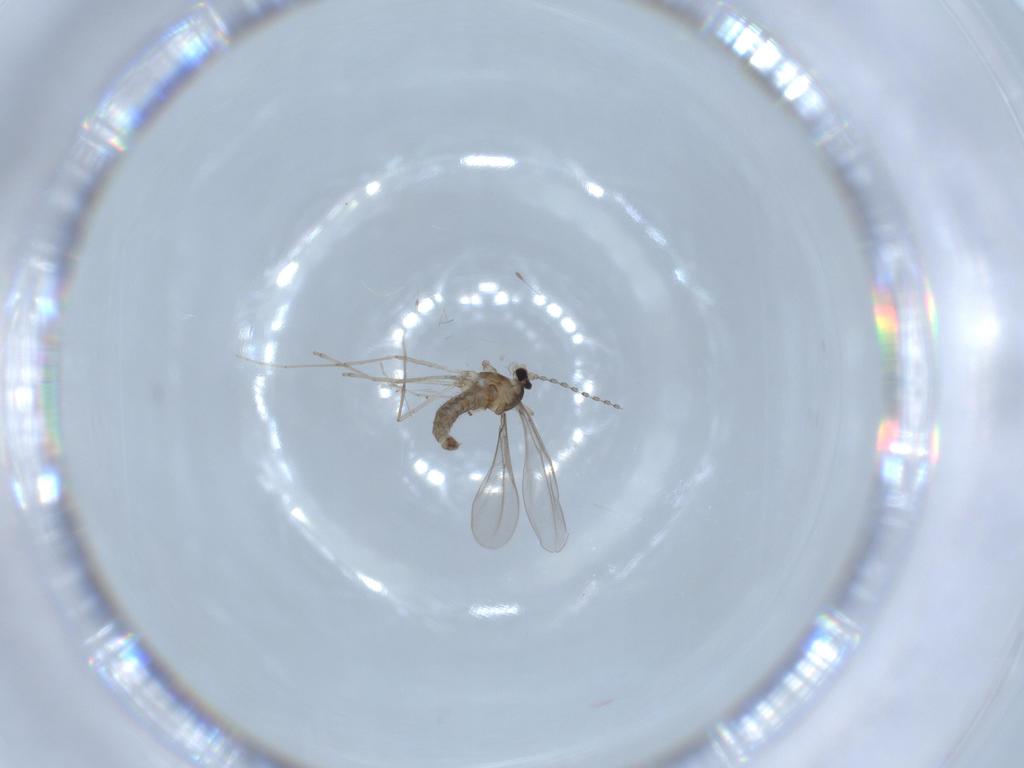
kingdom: Animalia
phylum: Arthropoda
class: Insecta
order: Diptera
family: Cecidomyiidae
